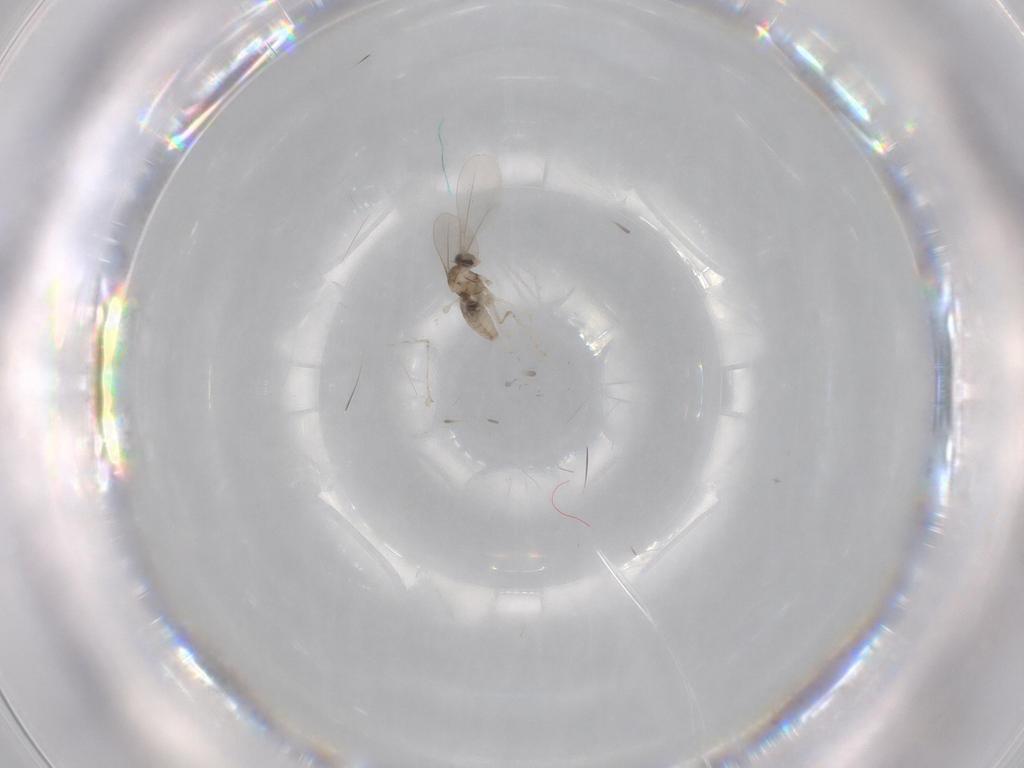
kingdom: Animalia
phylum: Arthropoda
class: Insecta
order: Diptera
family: Cecidomyiidae
